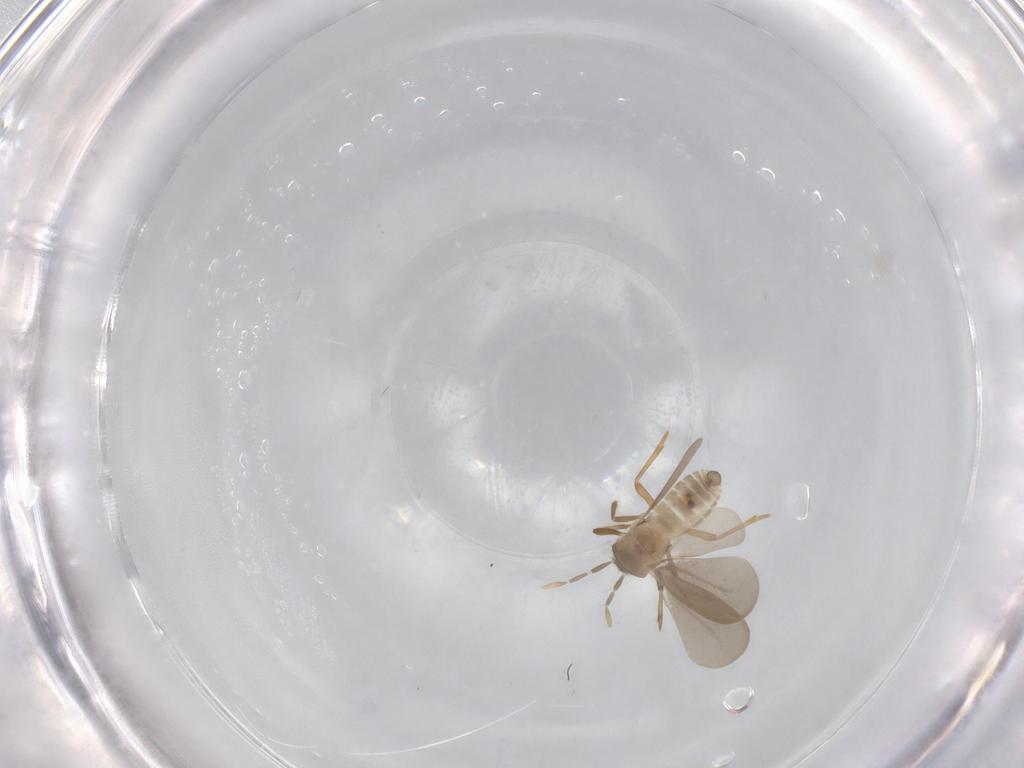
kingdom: Animalia
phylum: Arthropoda
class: Insecta
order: Hemiptera
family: Enicocephalidae
